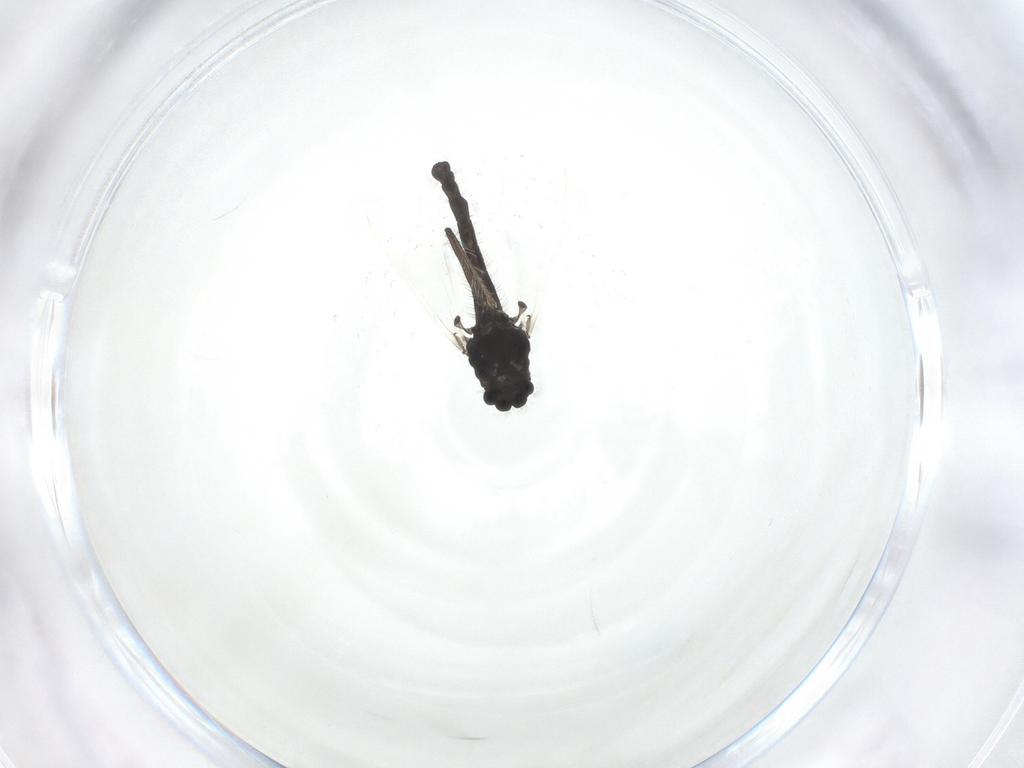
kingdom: Animalia
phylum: Arthropoda
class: Insecta
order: Diptera
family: Chironomidae
